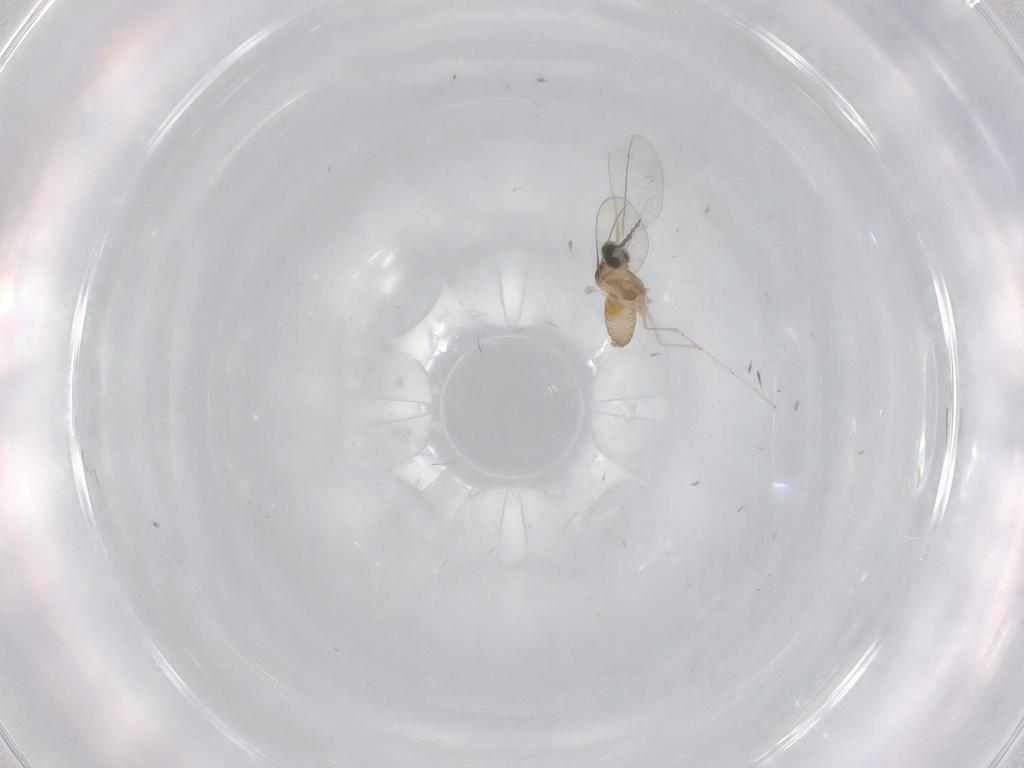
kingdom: Animalia
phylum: Arthropoda
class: Insecta
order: Diptera
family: Cecidomyiidae
